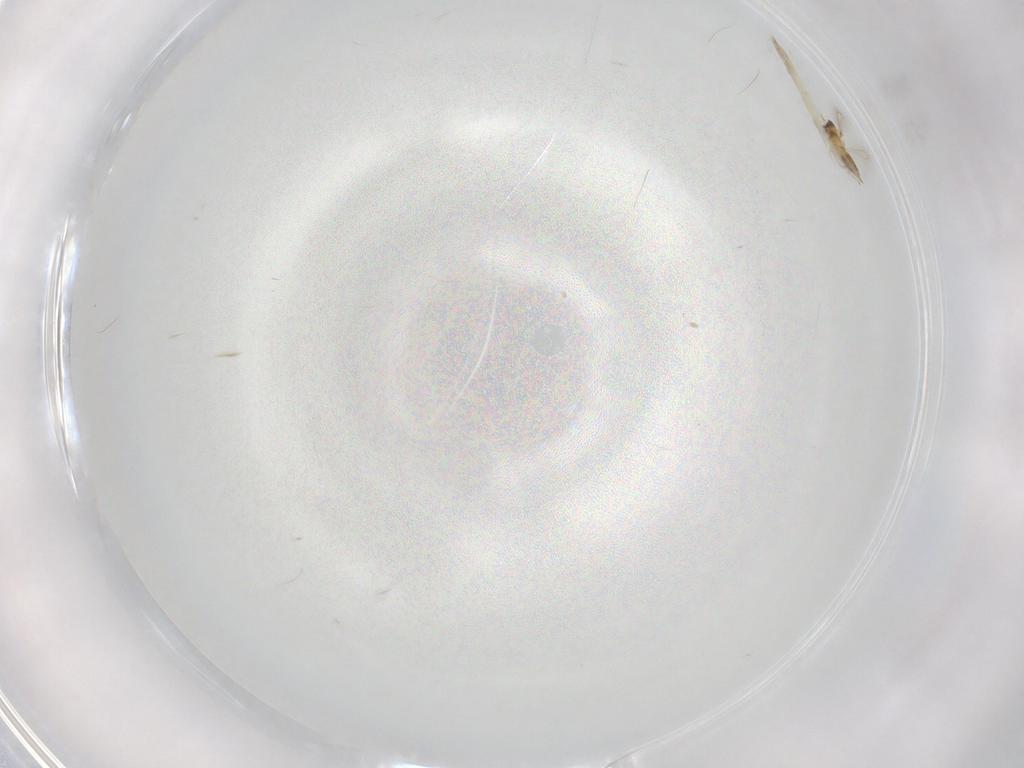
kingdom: Animalia
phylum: Arthropoda
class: Insecta
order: Hymenoptera
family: Mymaridae
